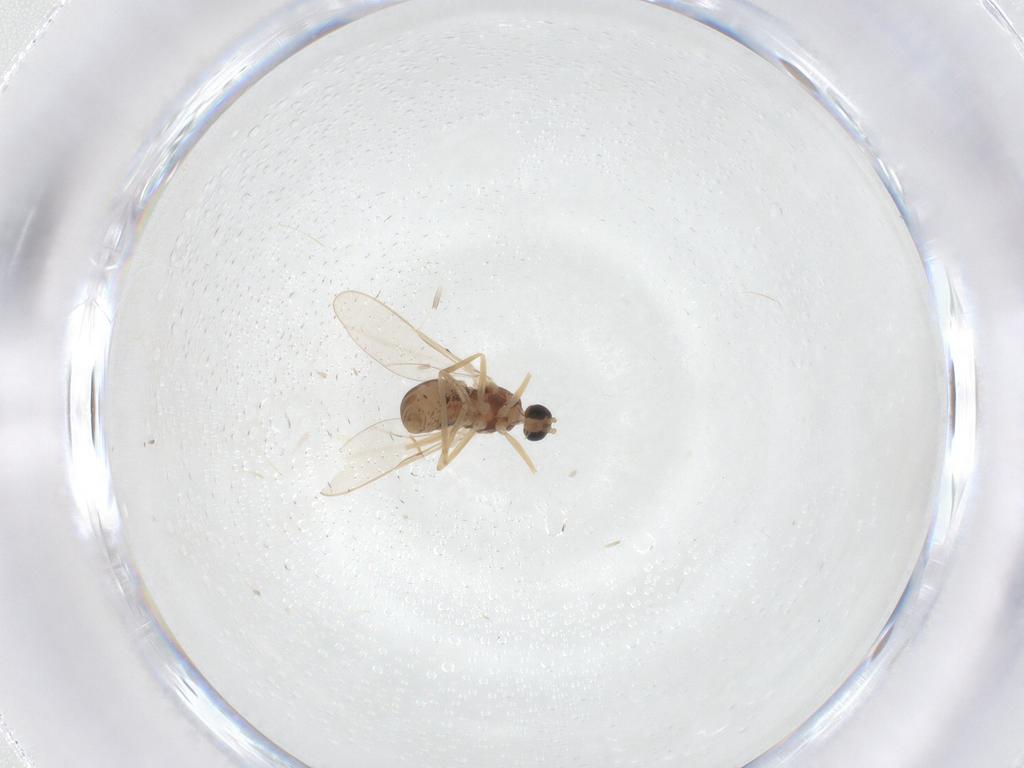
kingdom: Animalia
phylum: Arthropoda
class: Insecta
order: Diptera
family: Cecidomyiidae
